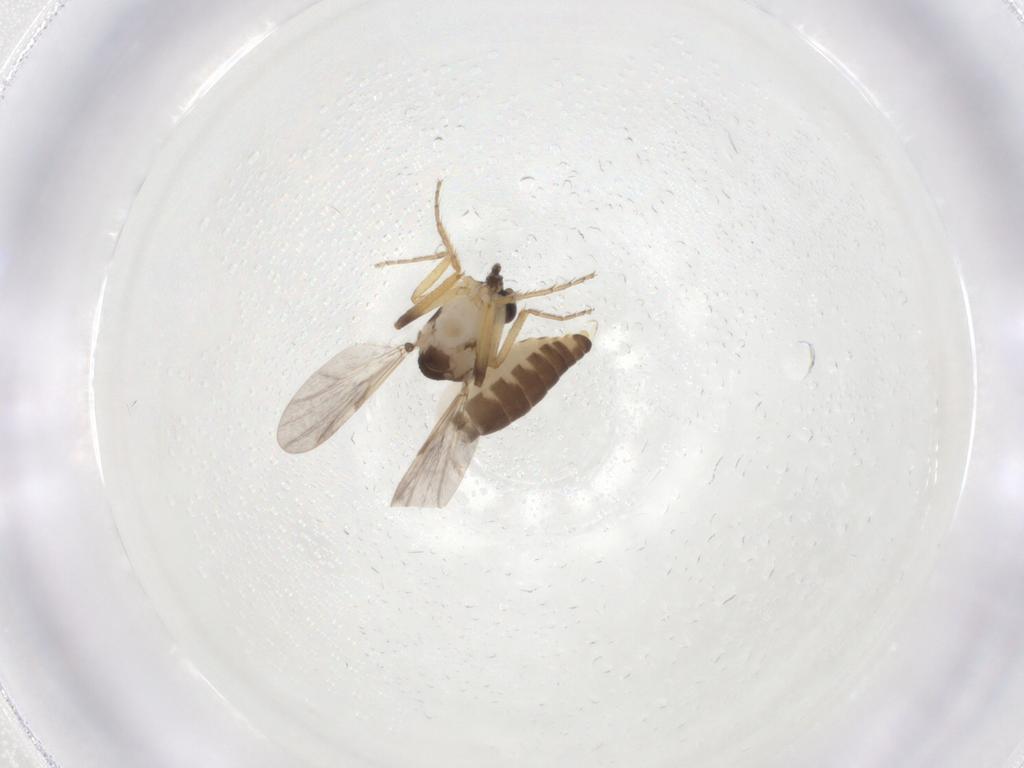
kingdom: Animalia
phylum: Arthropoda
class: Insecta
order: Diptera
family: Ceratopogonidae
